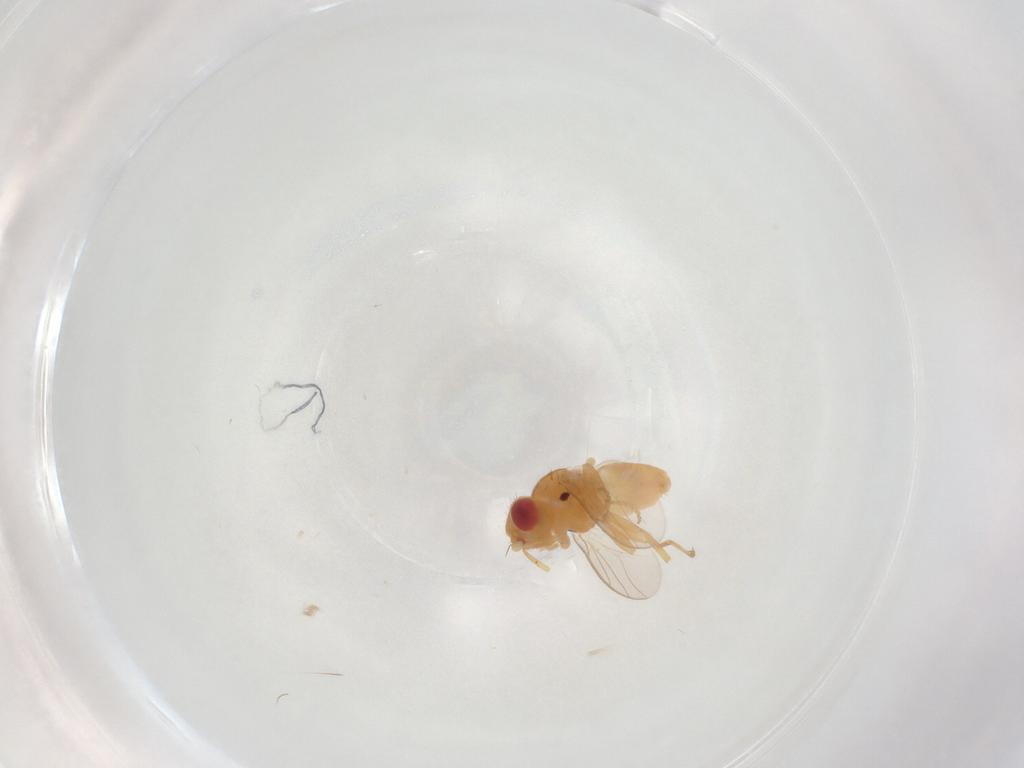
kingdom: Animalia
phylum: Arthropoda
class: Insecta
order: Diptera
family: Chloropidae
